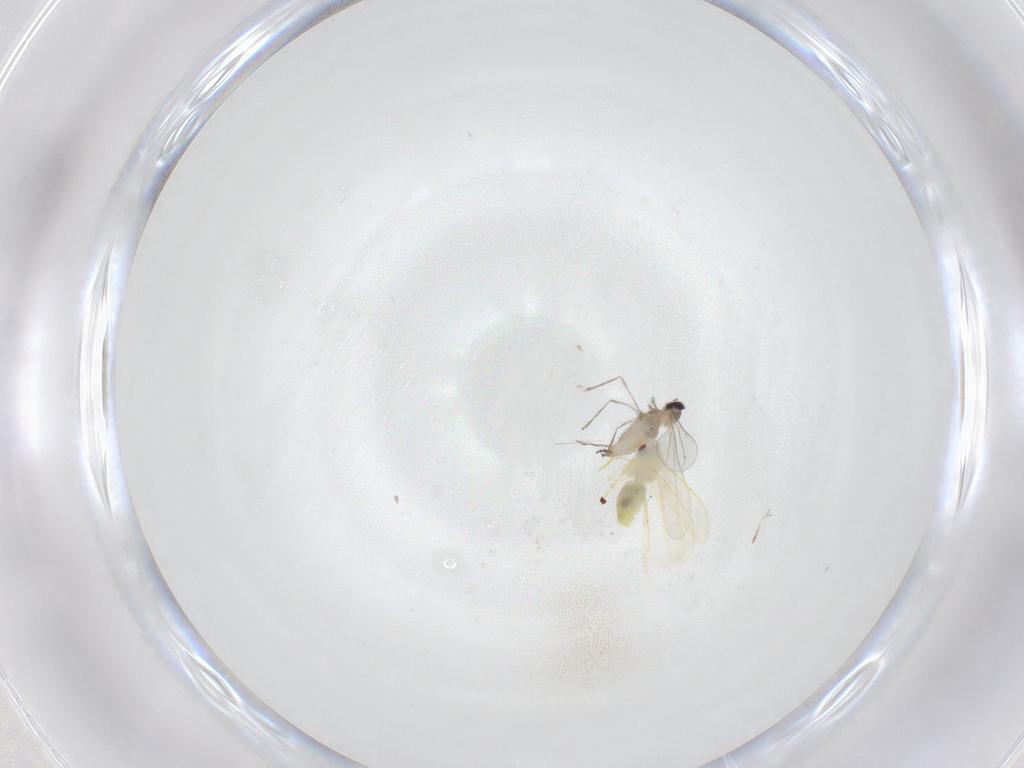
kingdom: Animalia
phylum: Arthropoda
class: Insecta
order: Diptera
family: Cecidomyiidae
